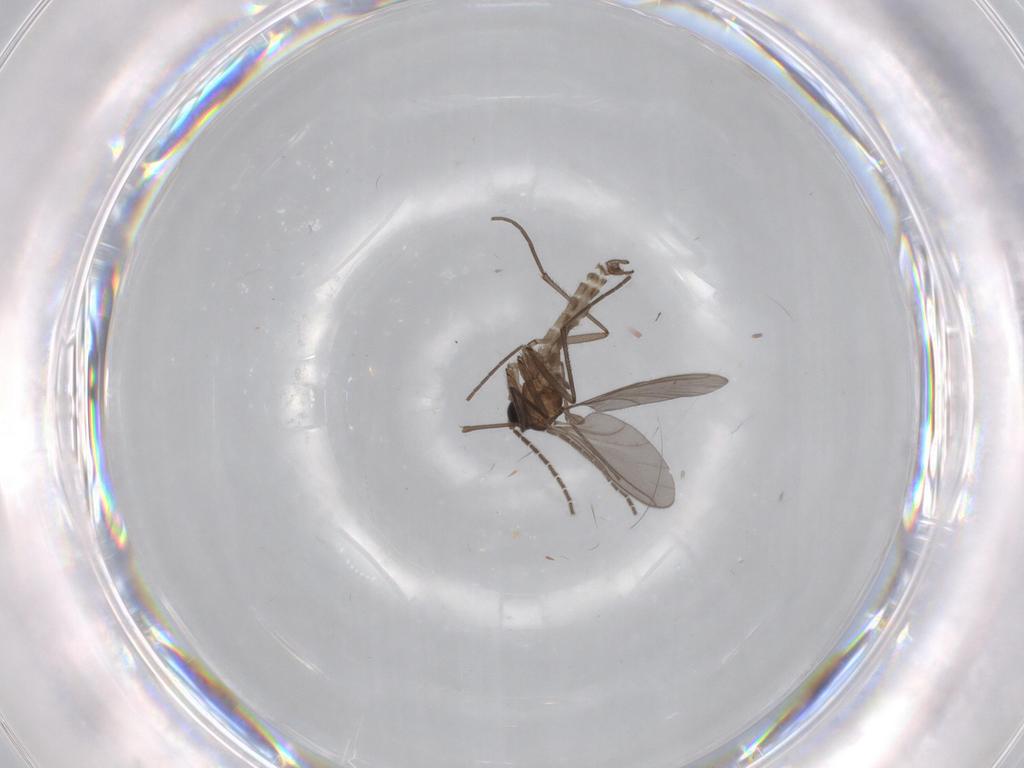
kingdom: Animalia
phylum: Arthropoda
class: Insecta
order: Diptera
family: Sciaridae
